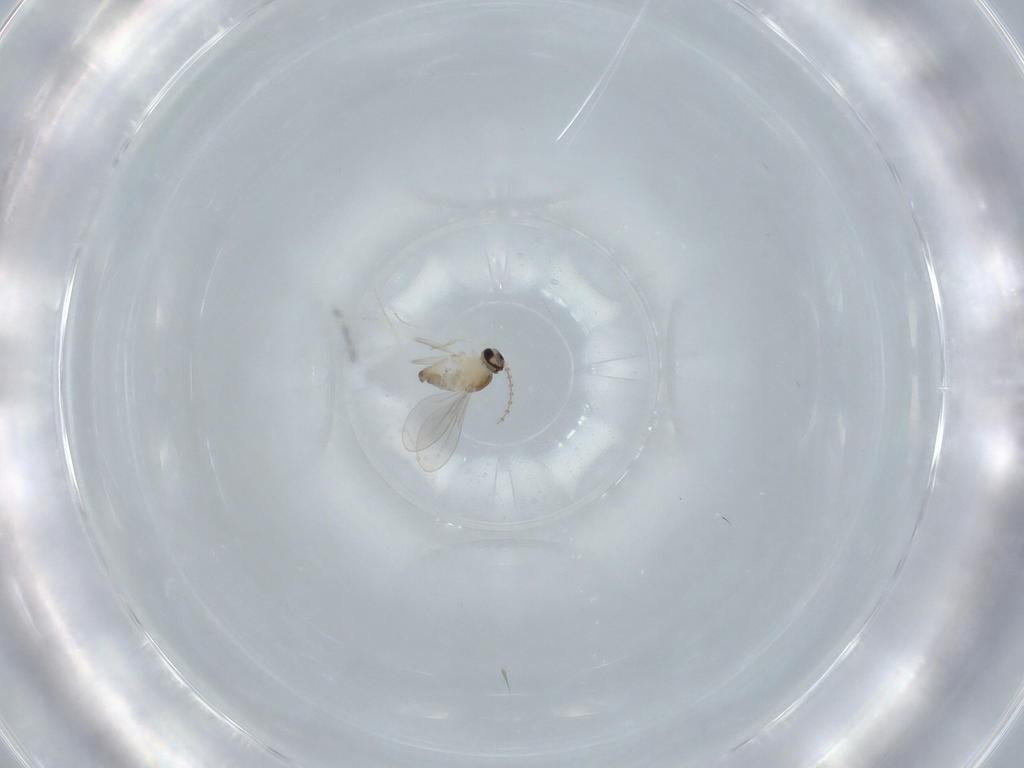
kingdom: Animalia
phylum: Arthropoda
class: Insecta
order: Diptera
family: Cecidomyiidae
